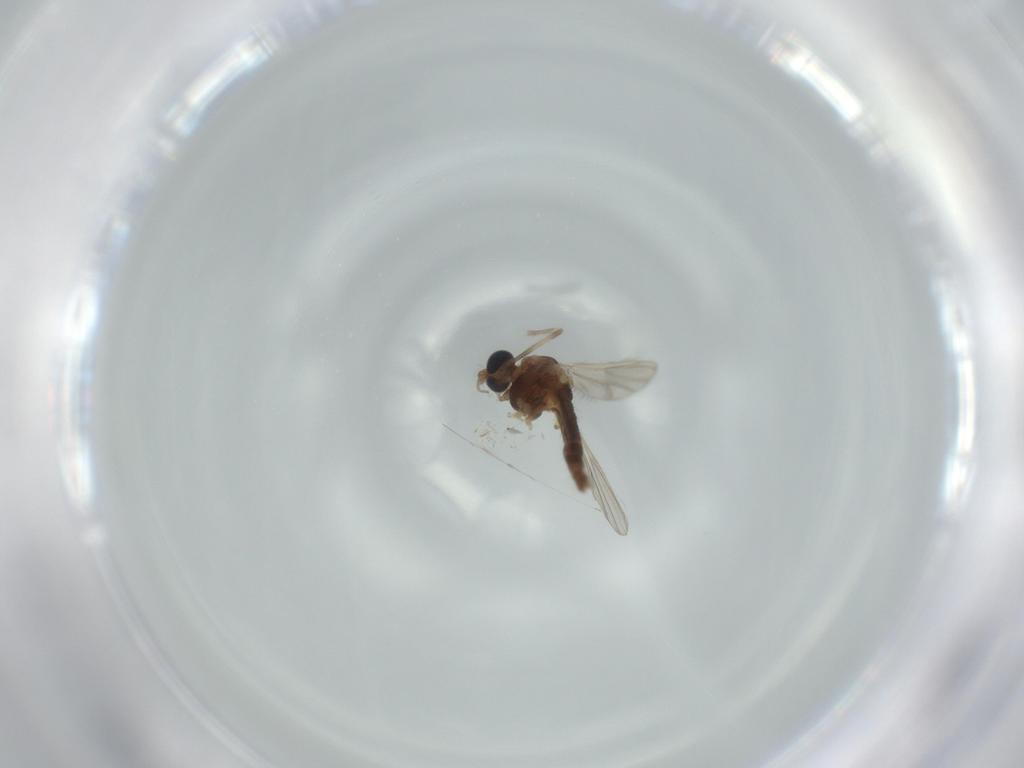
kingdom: Animalia
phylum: Arthropoda
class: Insecta
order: Diptera
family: Chironomidae
